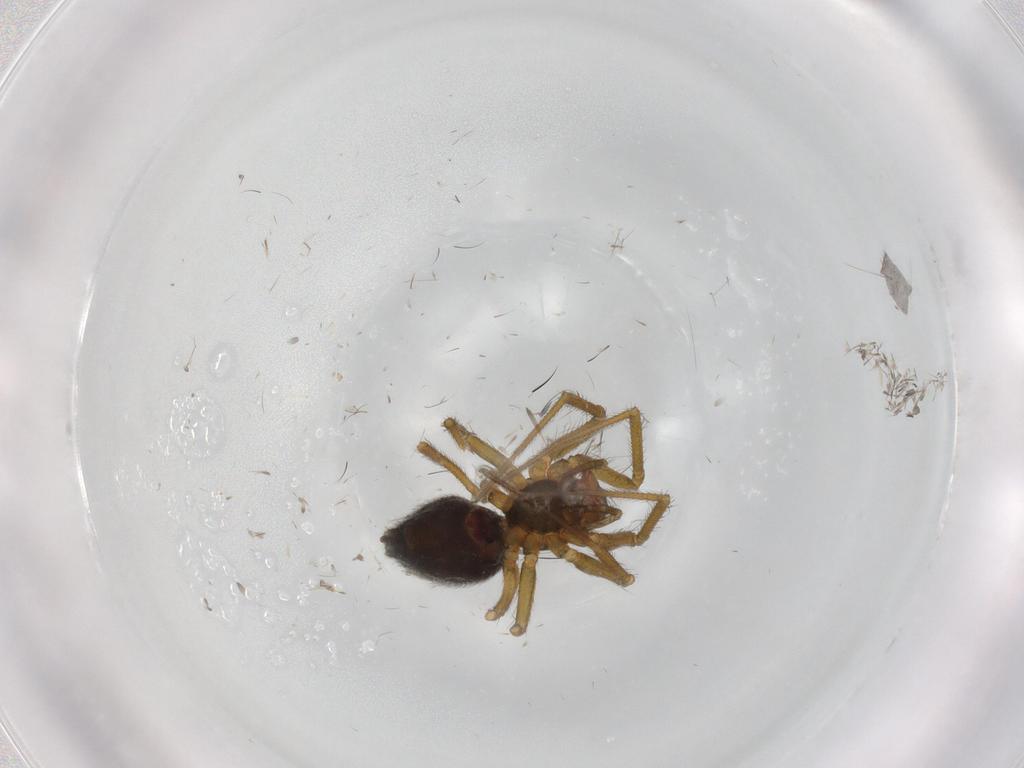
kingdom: Animalia
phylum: Arthropoda
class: Arachnida
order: Araneae
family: Linyphiidae
